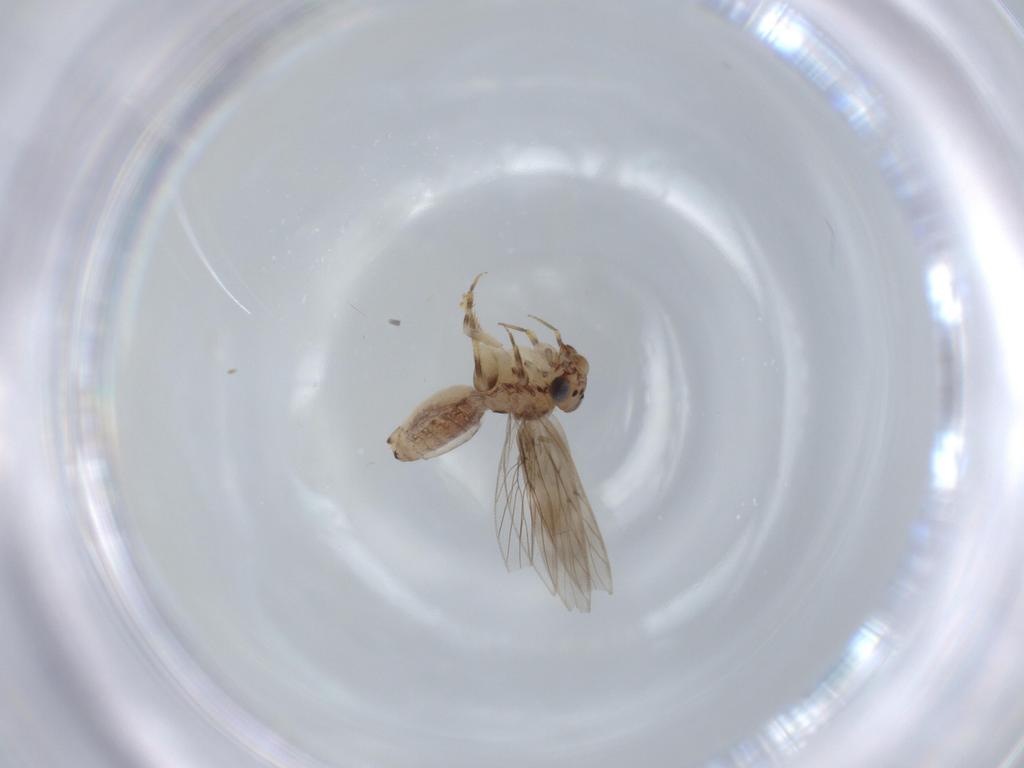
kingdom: Animalia
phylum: Arthropoda
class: Insecta
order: Psocodea
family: Lepidopsocidae
